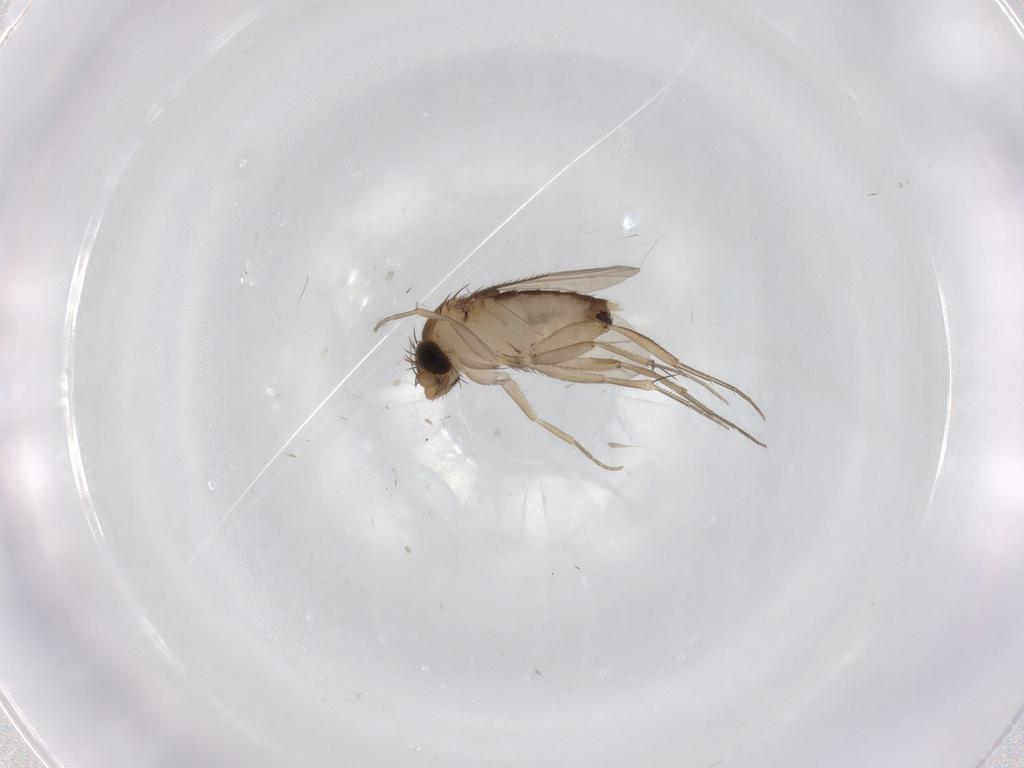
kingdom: Animalia
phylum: Arthropoda
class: Insecta
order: Diptera
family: Phoridae
